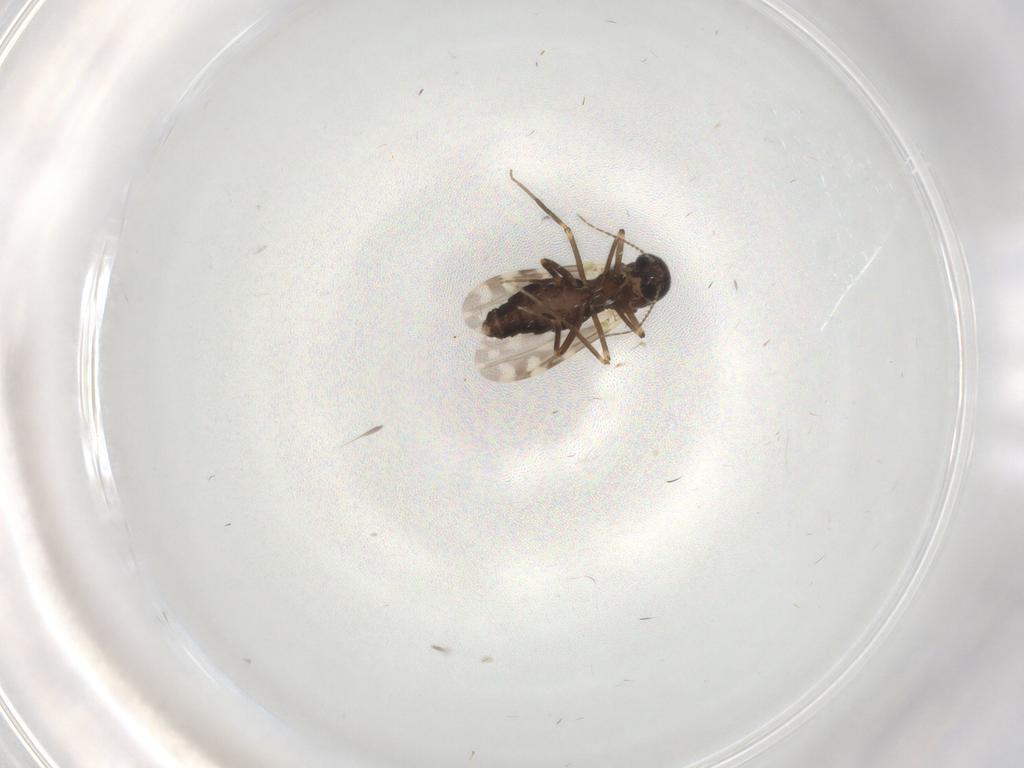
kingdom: Animalia
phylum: Arthropoda
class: Insecta
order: Diptera
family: Ceratopogonidae
